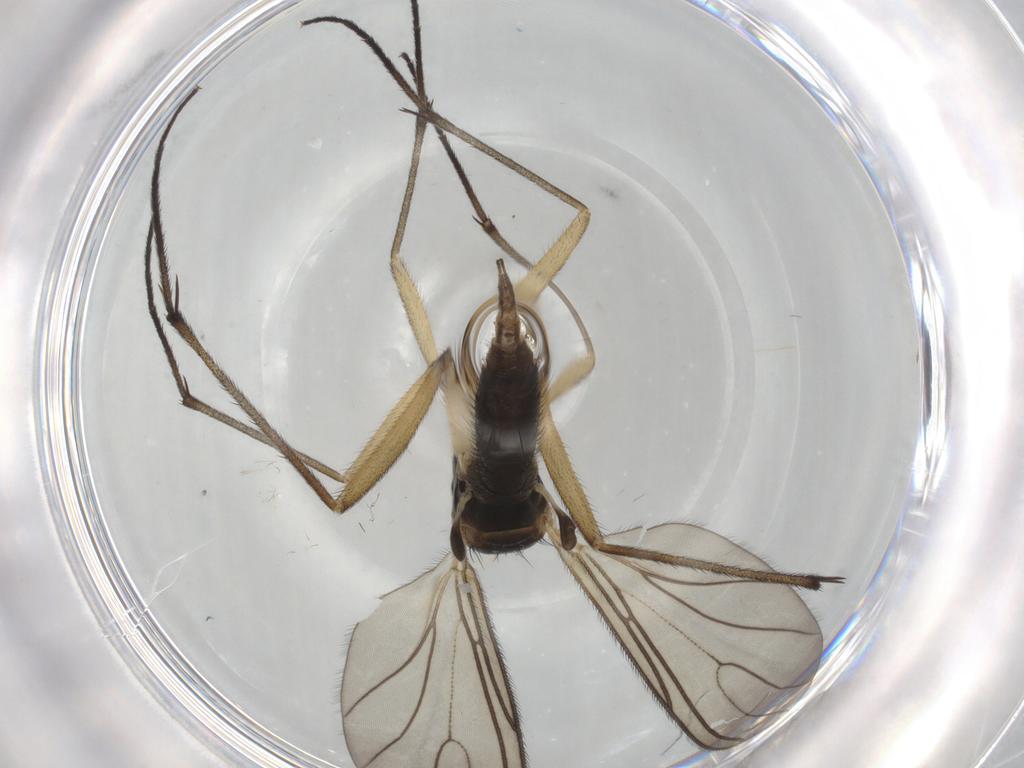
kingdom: Animalia
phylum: Arthropoda
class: Insecta
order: Diptera
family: Sciaridae
